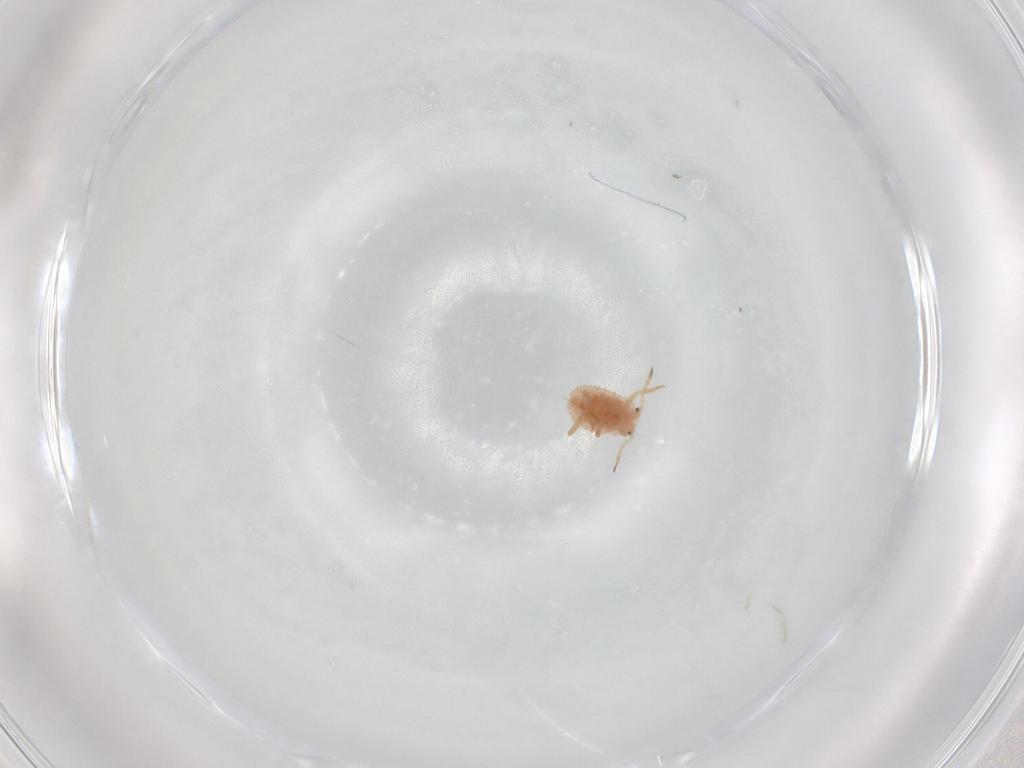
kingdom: Animalia
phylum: Arthropoda
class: Insecta
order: Hemiptera
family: Coccoidea_incertae_sedis
